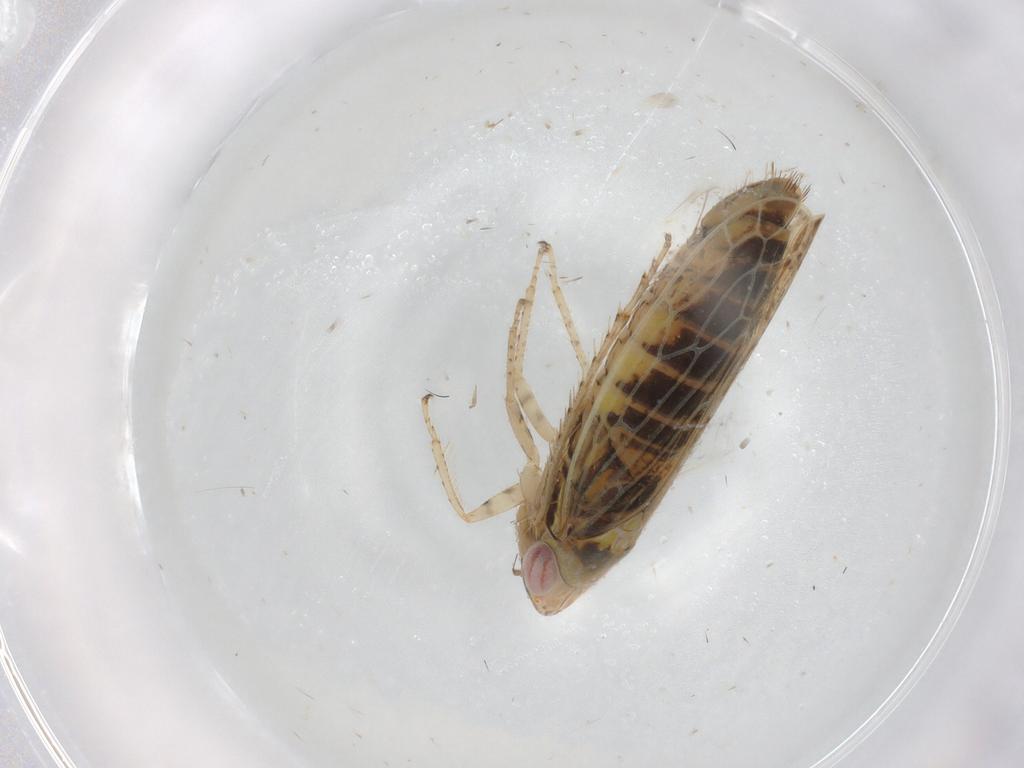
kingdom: Animalia
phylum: Arthropoda
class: Insecta
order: Hemiptera
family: Cicadellidae
